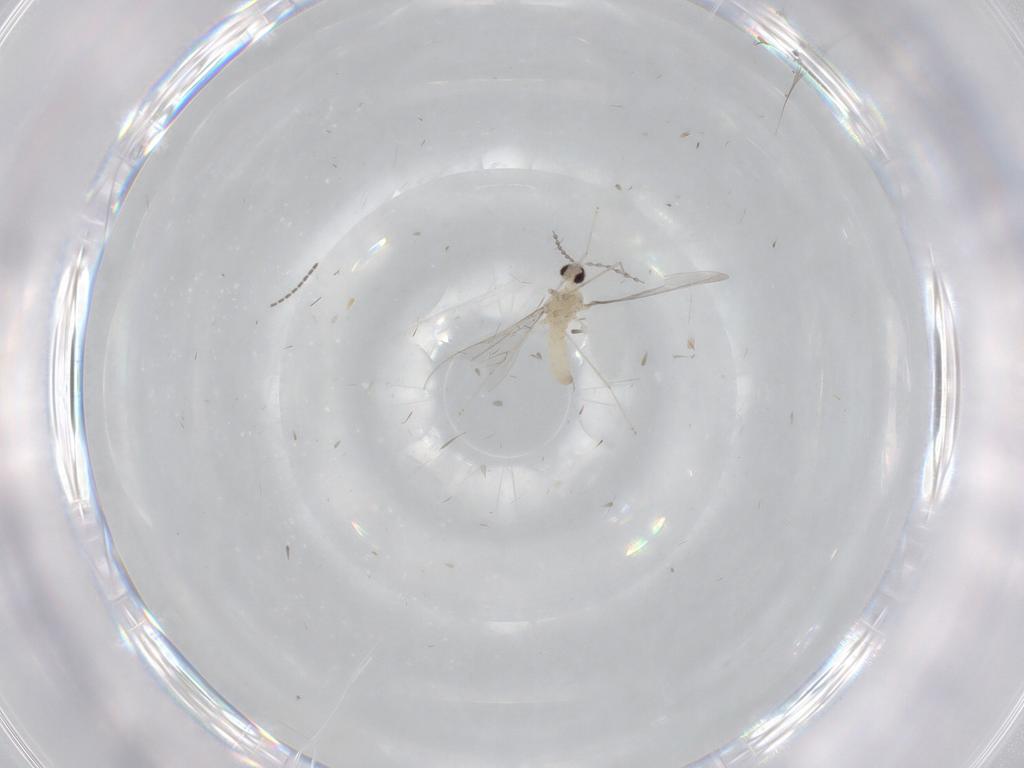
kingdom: Animalia
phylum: Arthropoda
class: Insecta
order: Diptera
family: Cecidomyiidae
